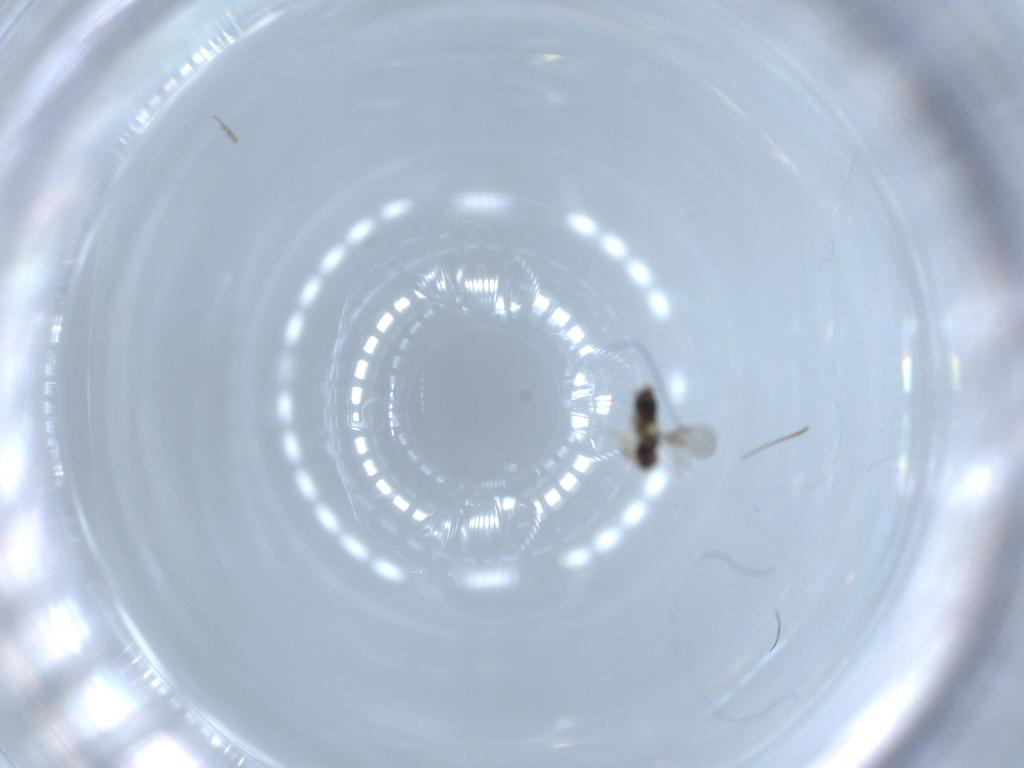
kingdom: Animalia
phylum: Arthropoda
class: Insecta
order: Hymenoptera
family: Aphelinidae
